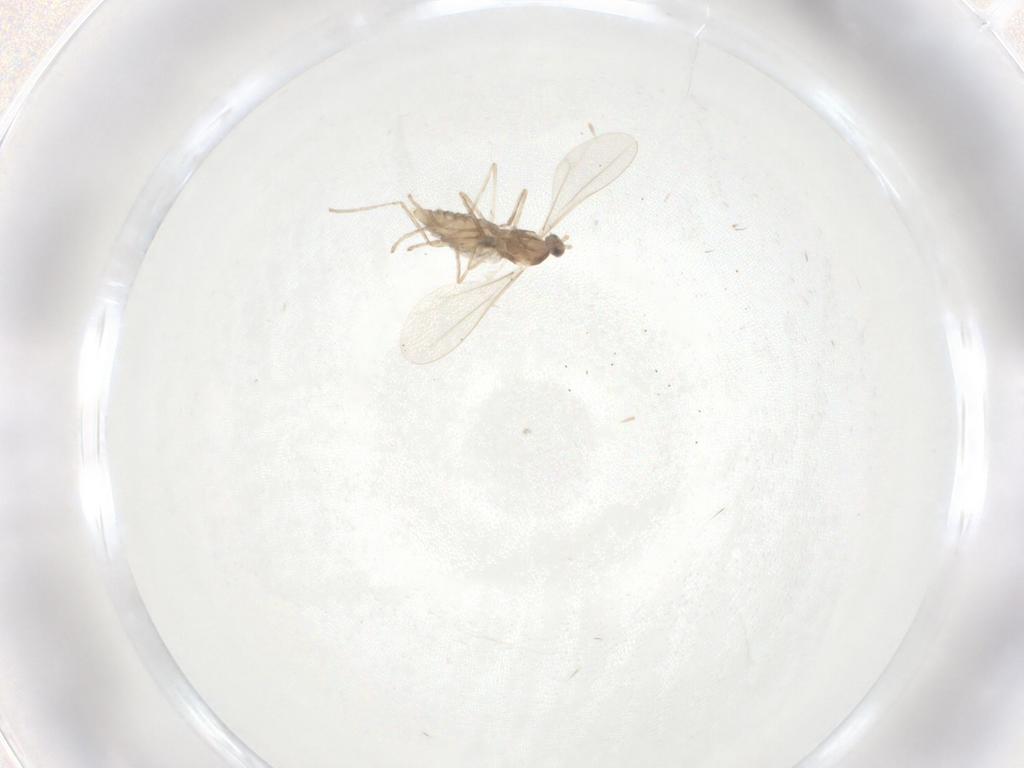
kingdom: Animalia
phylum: Arthropoda
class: Insecta
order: Diptera
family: Cecidomyiidae
